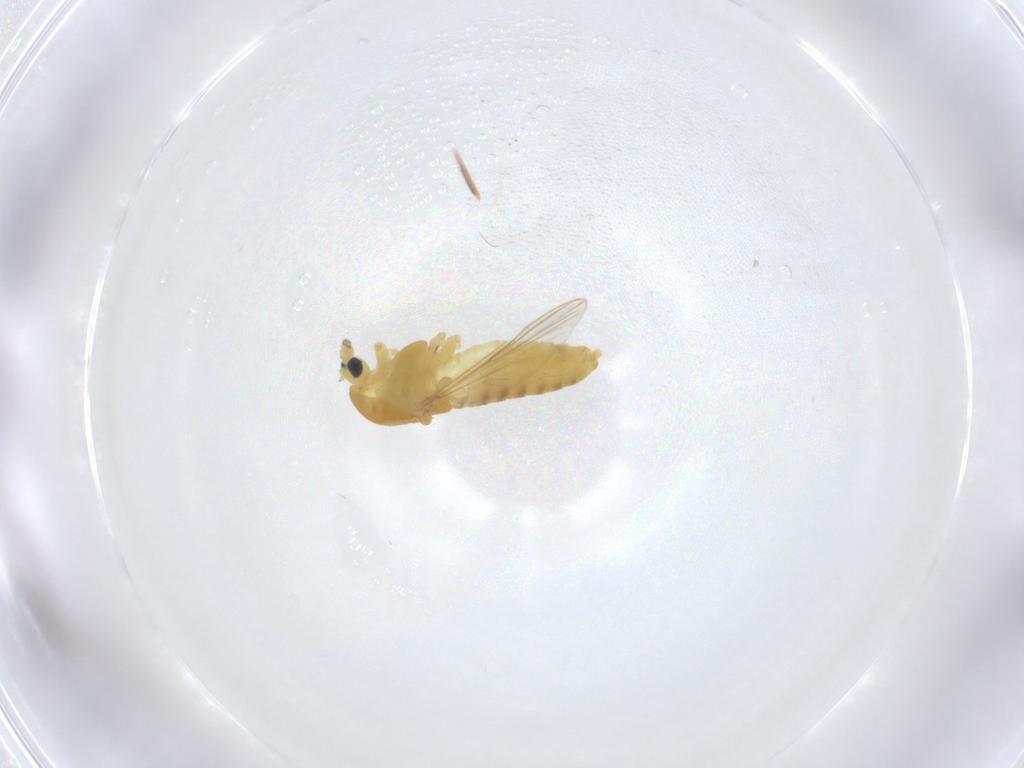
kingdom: Animalia
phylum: Arthropoda
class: Insecta
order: Diptera
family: Chironomidae
